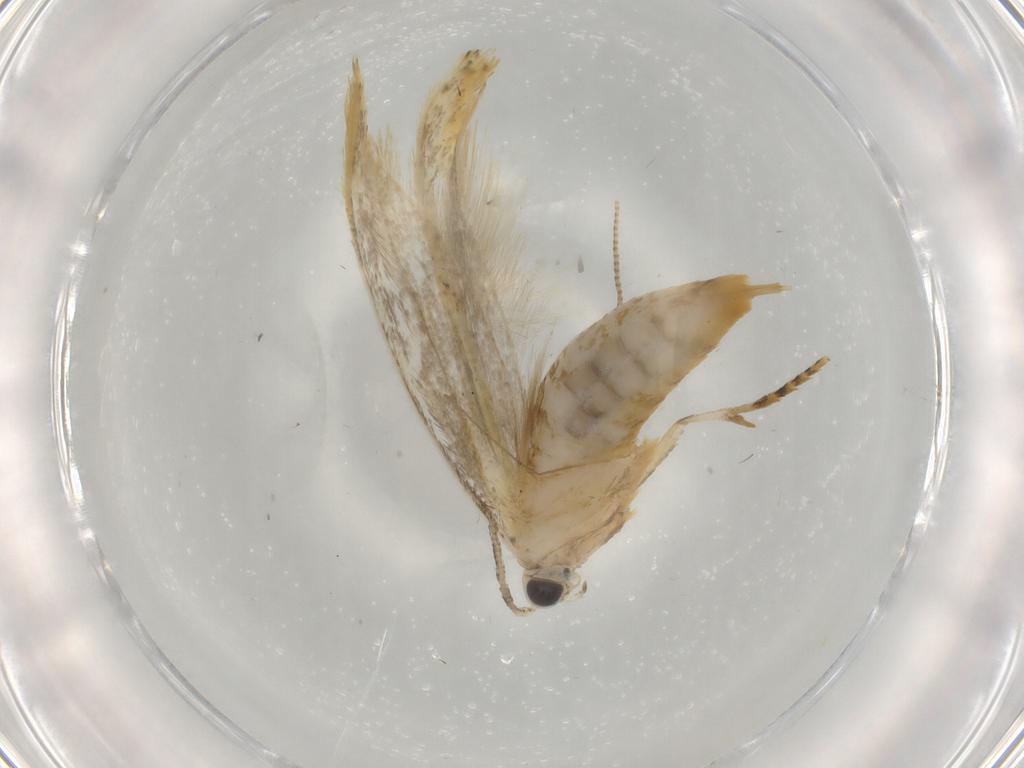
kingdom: Animalia
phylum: Arthropoda
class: Insecta
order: Lepidoptera
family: Tineidae
